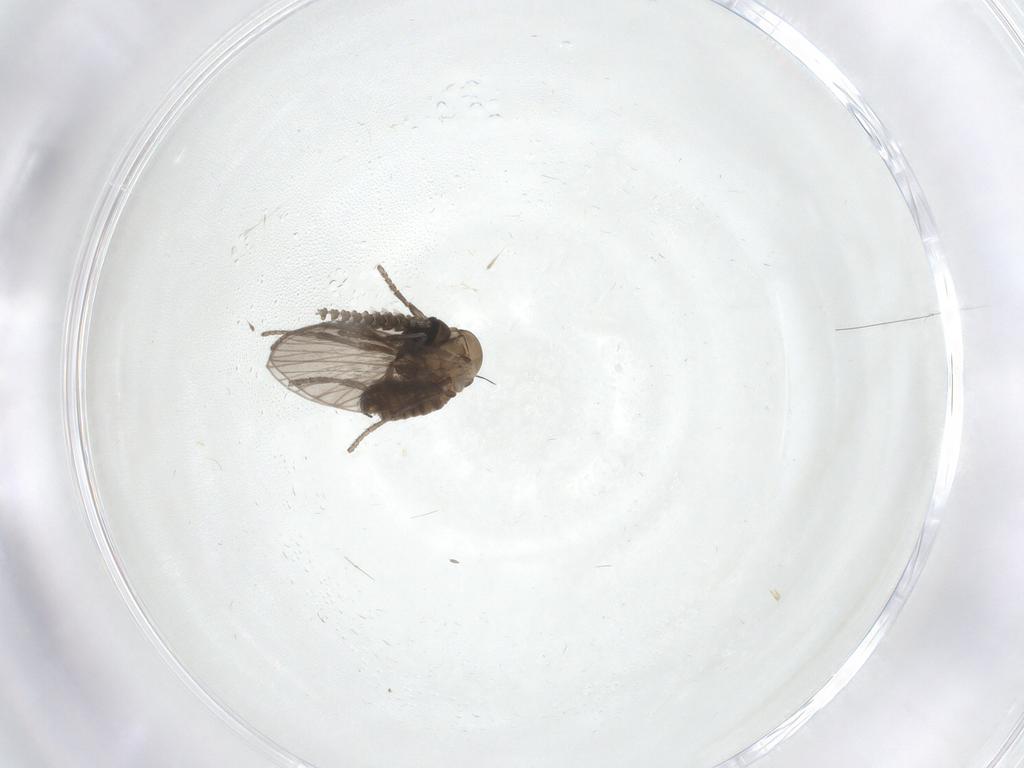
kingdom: Animalia
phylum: Arthropoda
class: Insecta
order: Diptera
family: Psychodidae
